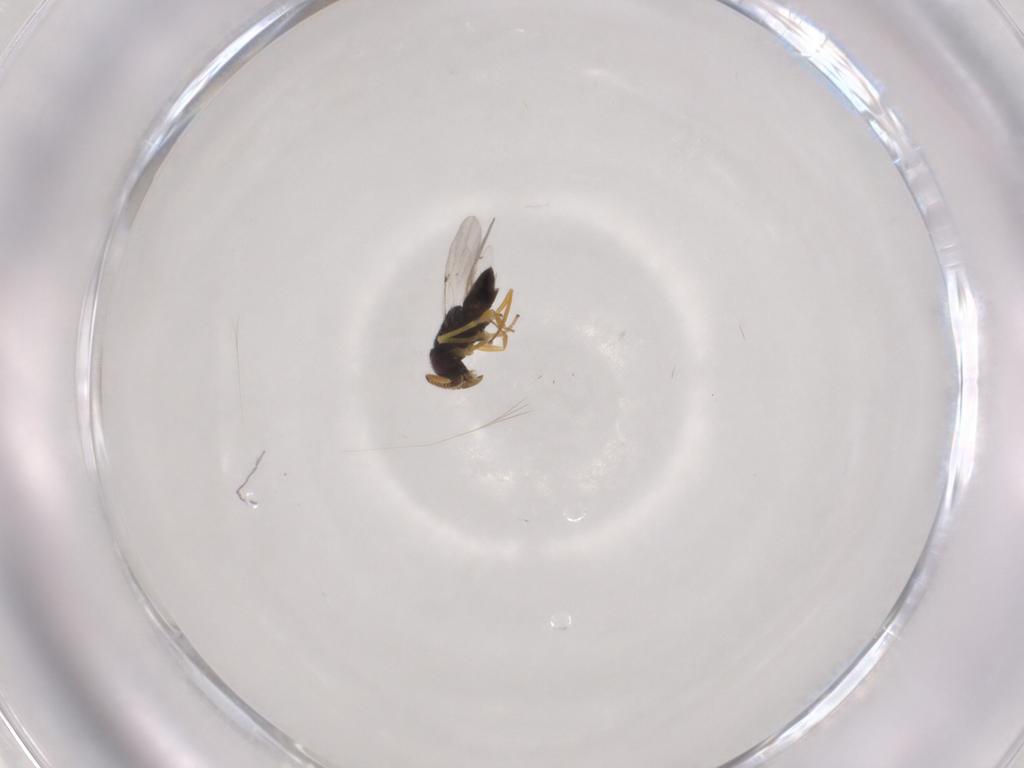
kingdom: Animalia
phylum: Arthropoda
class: Insecta
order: Hymenoptera
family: Encyrtidae
